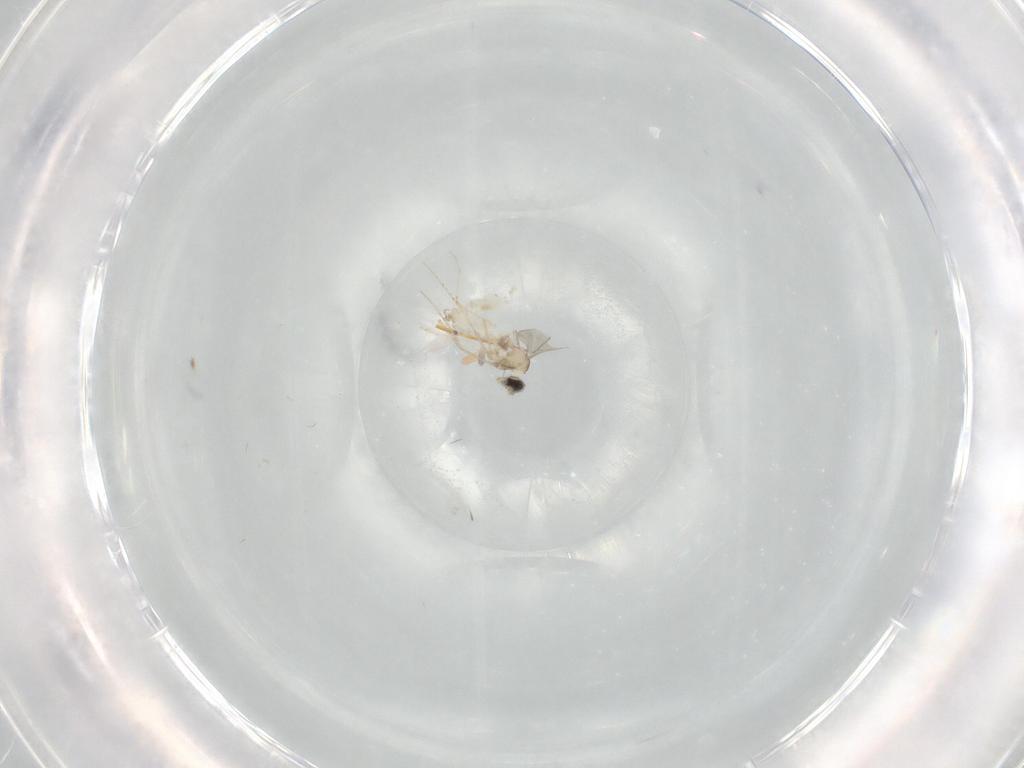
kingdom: Animalia
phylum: Arthropoda
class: Insecta
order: Diptera
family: Cecidomyiidae
